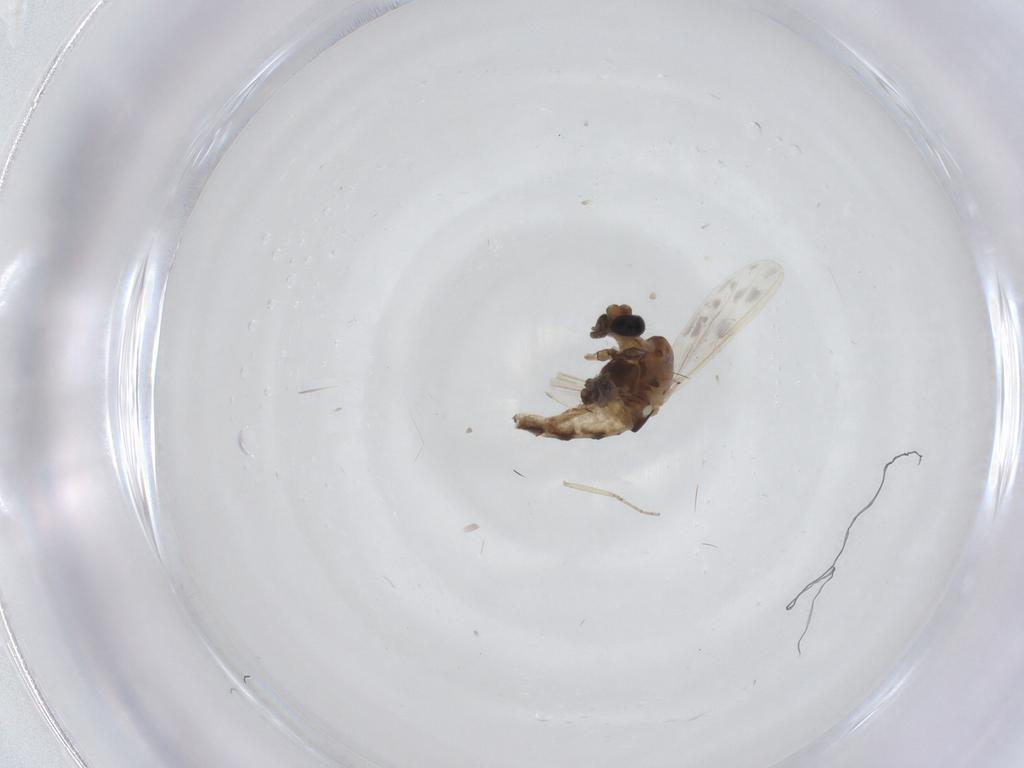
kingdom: Animalia
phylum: Arthropoda
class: Insecta
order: Diptera
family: Chironomidae
